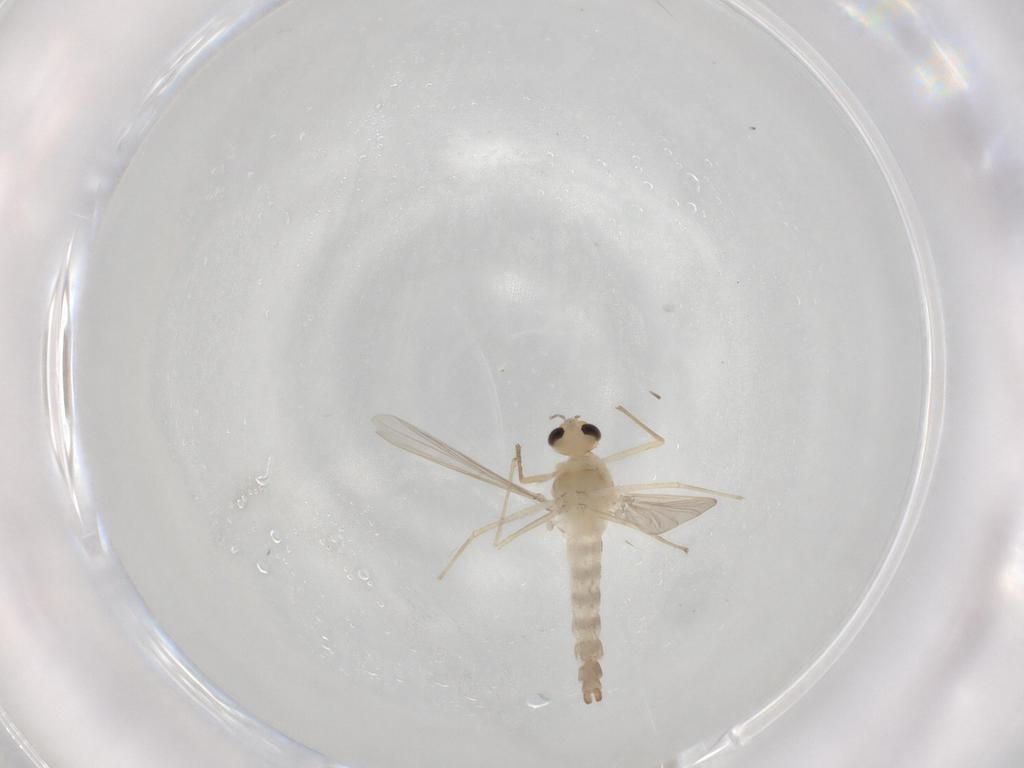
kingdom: Animalia
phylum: Arthropoda
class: Insecta
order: Diptera
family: Chironomidae
